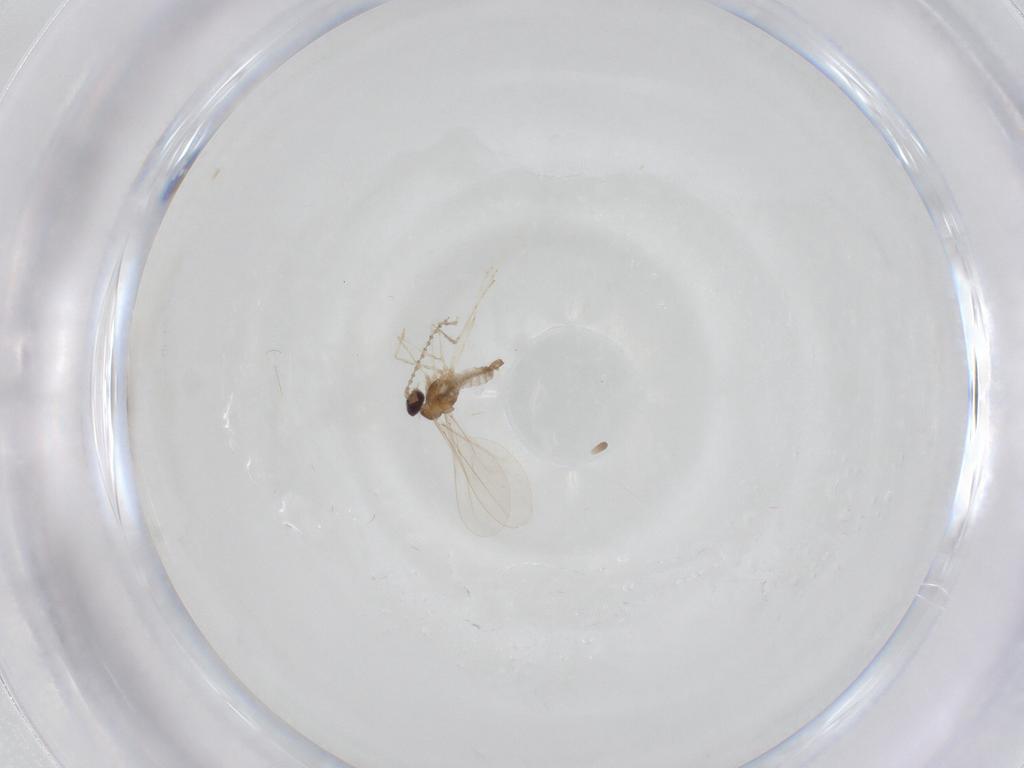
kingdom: Animalia
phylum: Arthropoda
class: Insecta
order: Diptera
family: Cecidomyiidae
